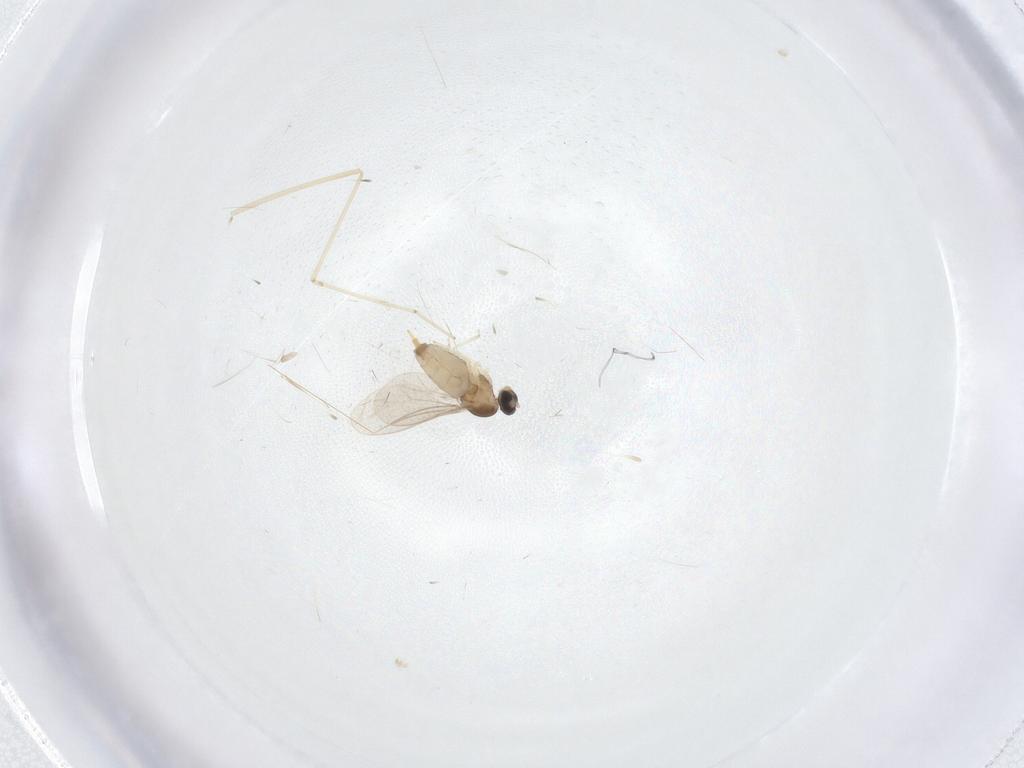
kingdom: Animalia
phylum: Arthropoda
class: Insecta
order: Diptera
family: Cecidomyiidae
